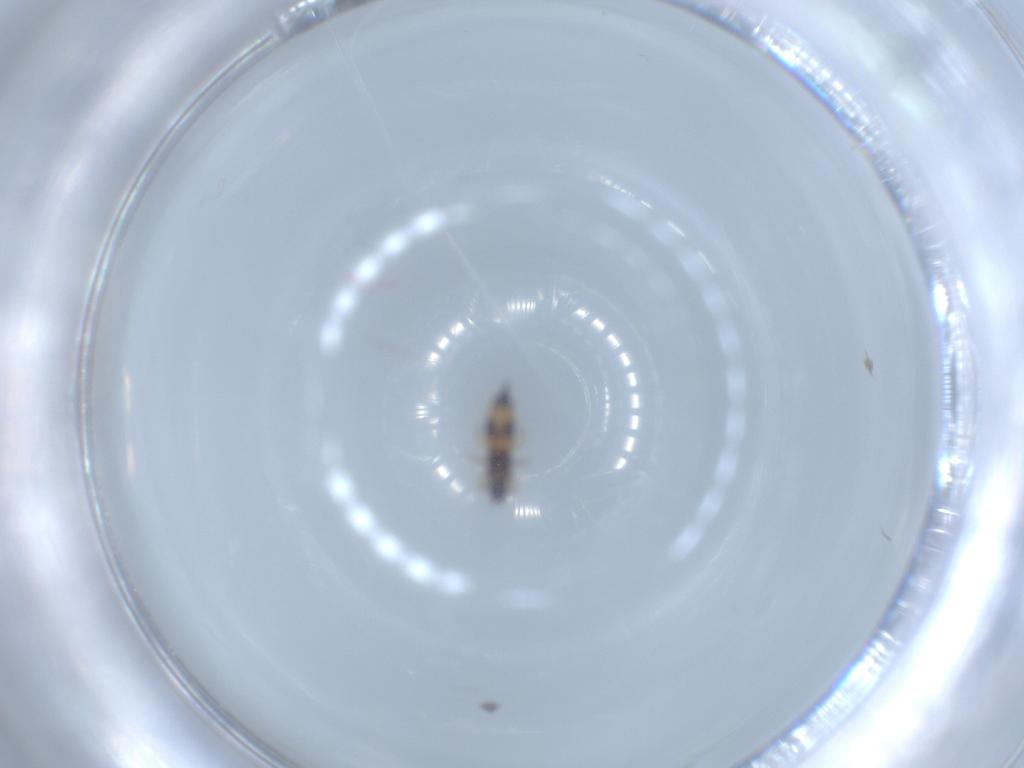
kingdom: Animalia
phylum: Arthropoda
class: Insecta
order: Thysanoptera
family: Phlaeothripidae
